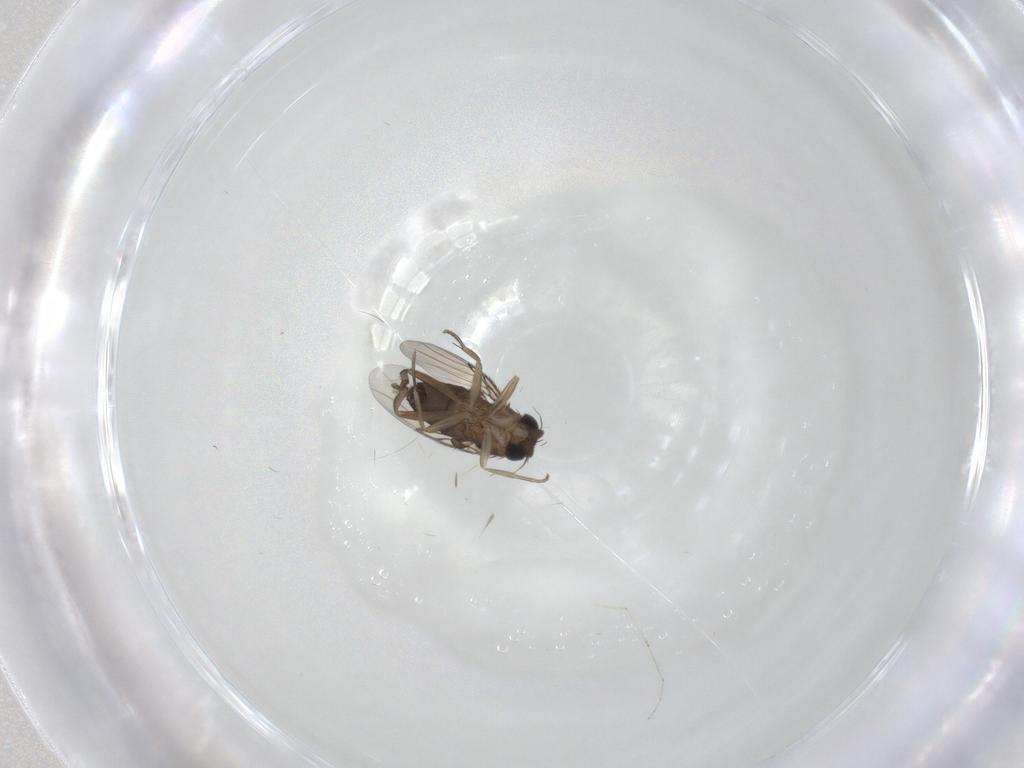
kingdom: Animalia
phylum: Arthropoda
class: Insecta
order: Diptera
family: Phoridae
